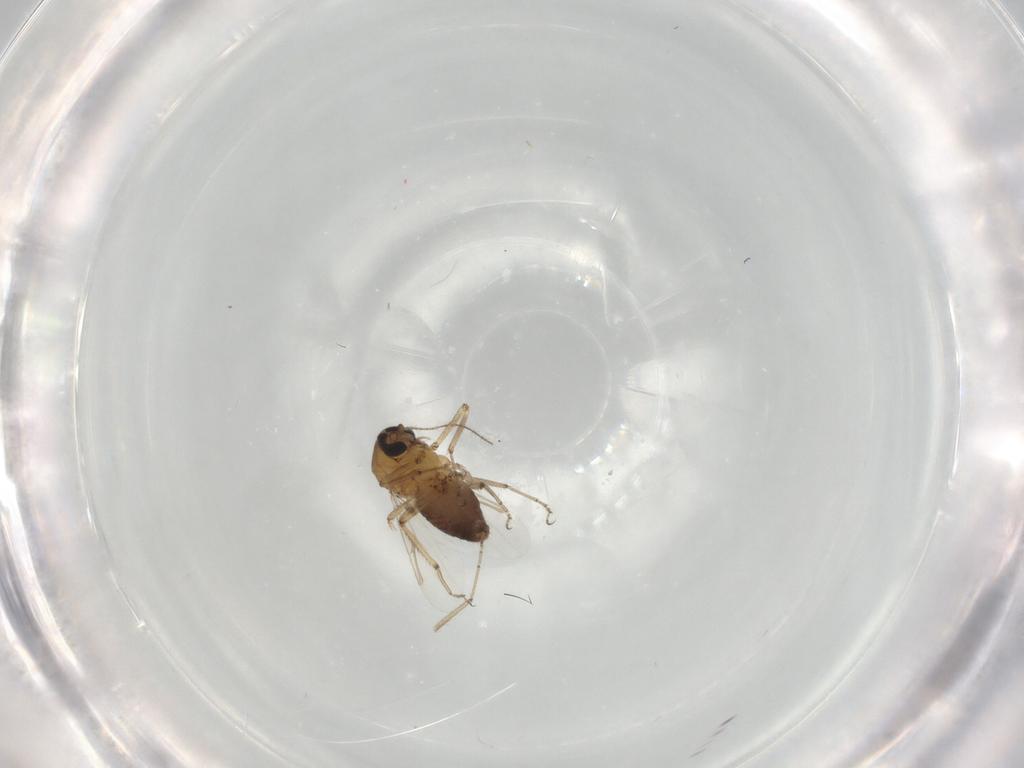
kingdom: Animalia
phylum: Arthropoda
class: Insecta
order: Diptera
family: Ceratopogonidae
